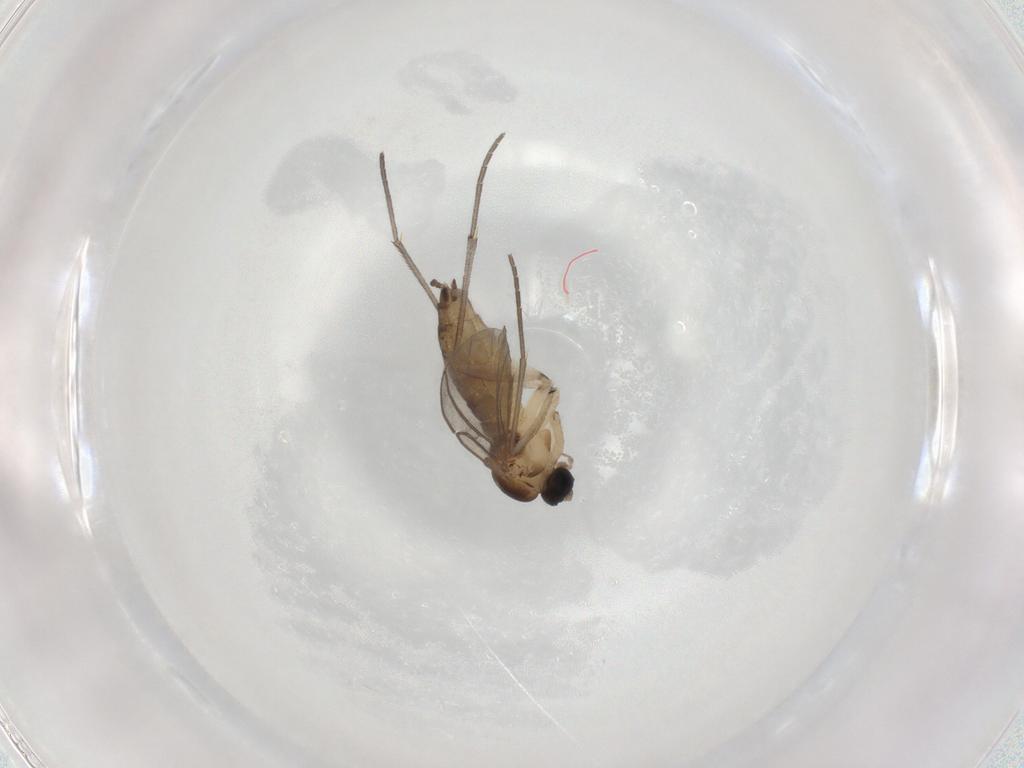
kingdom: Animalia
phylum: Arthropoda
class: Insecta
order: Diptera
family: Sciaridae
